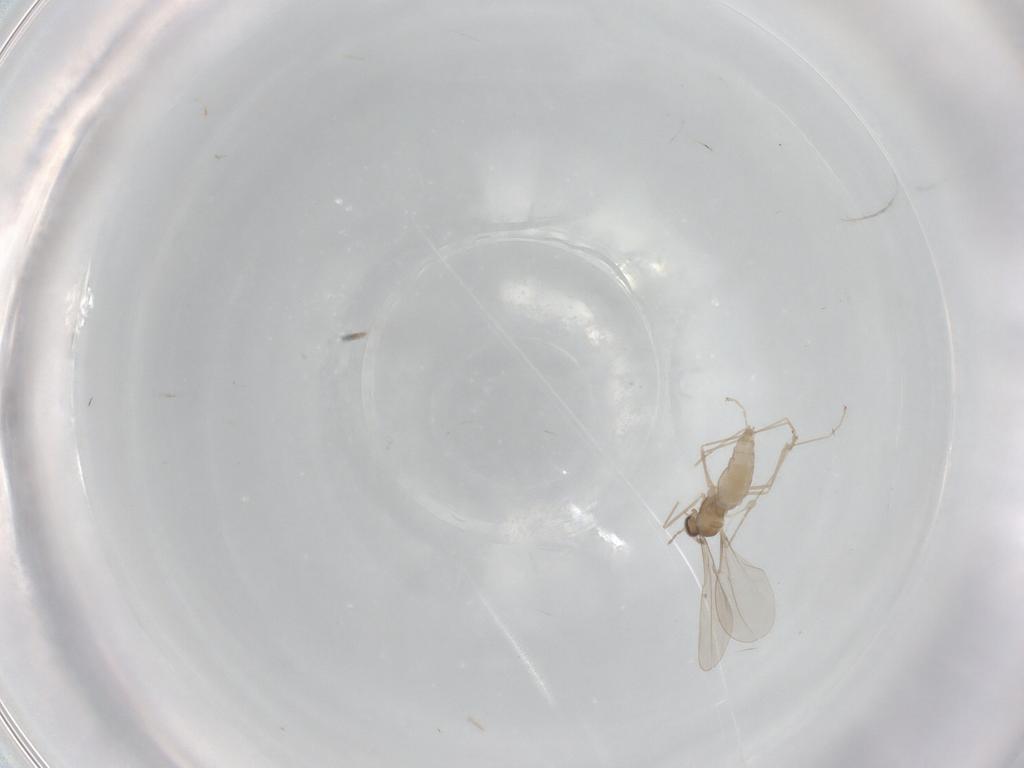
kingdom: Animalia
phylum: Arthropoda
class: Insecta
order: Diptera
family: Cecidomyiidae
